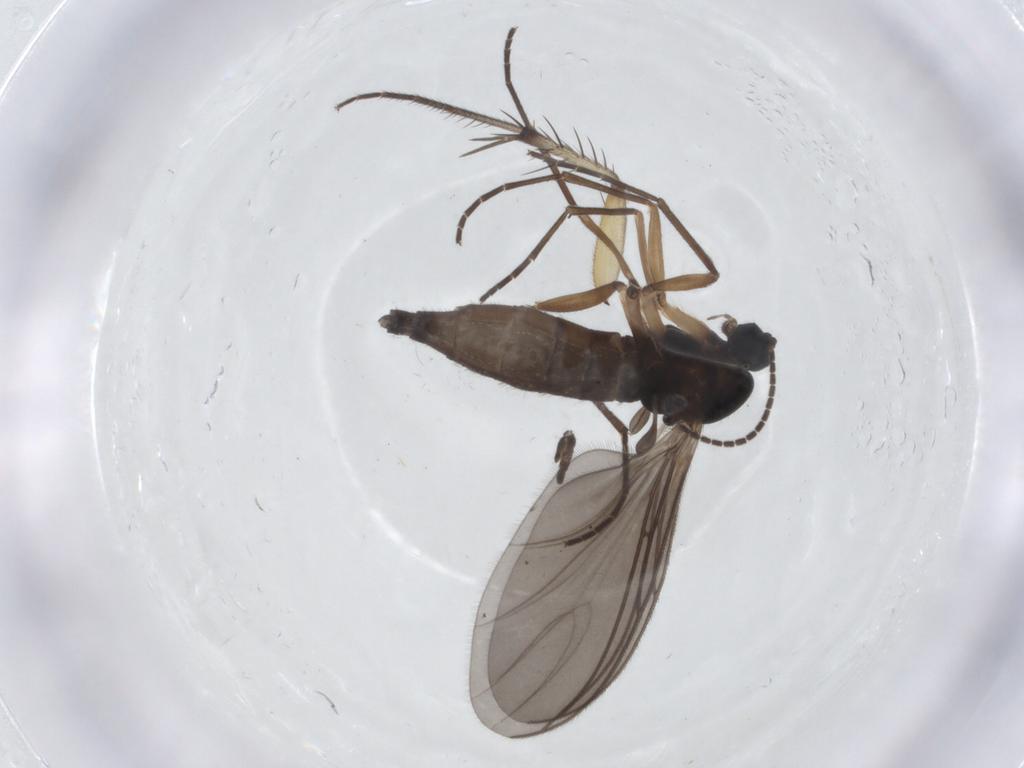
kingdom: Animalia
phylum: Arthropoda
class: Insecta
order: Diptera
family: Sciaridae
